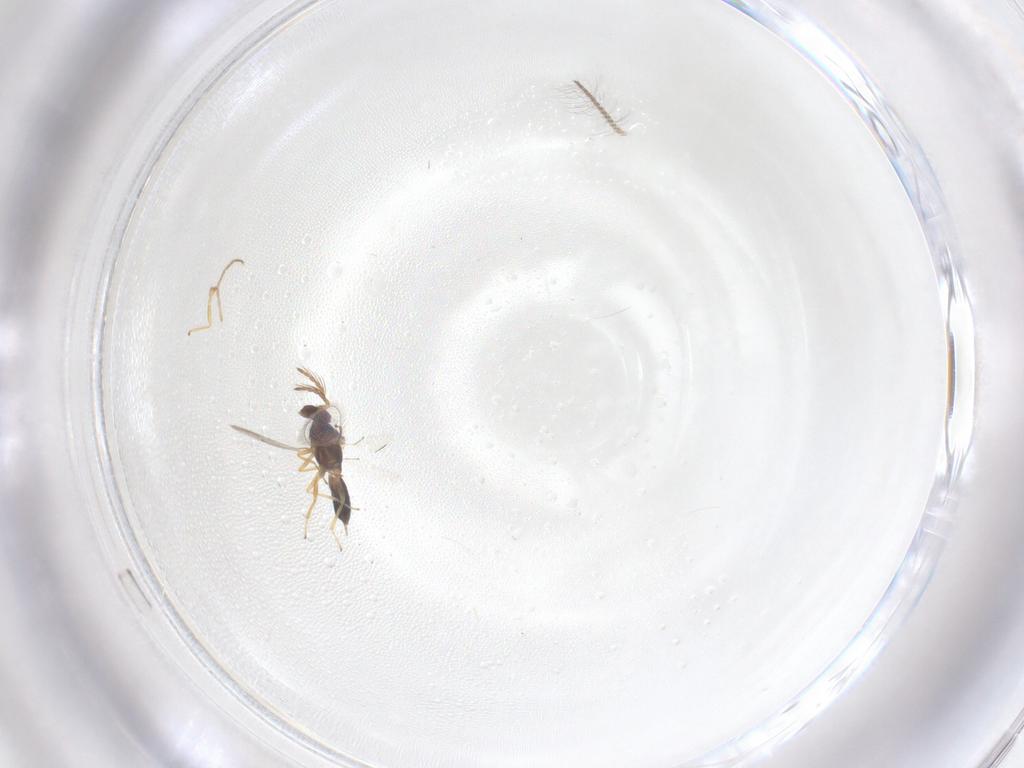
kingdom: Animalia
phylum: Arthropoda
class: Insecta
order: Hymenoptera
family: Eulophidae
